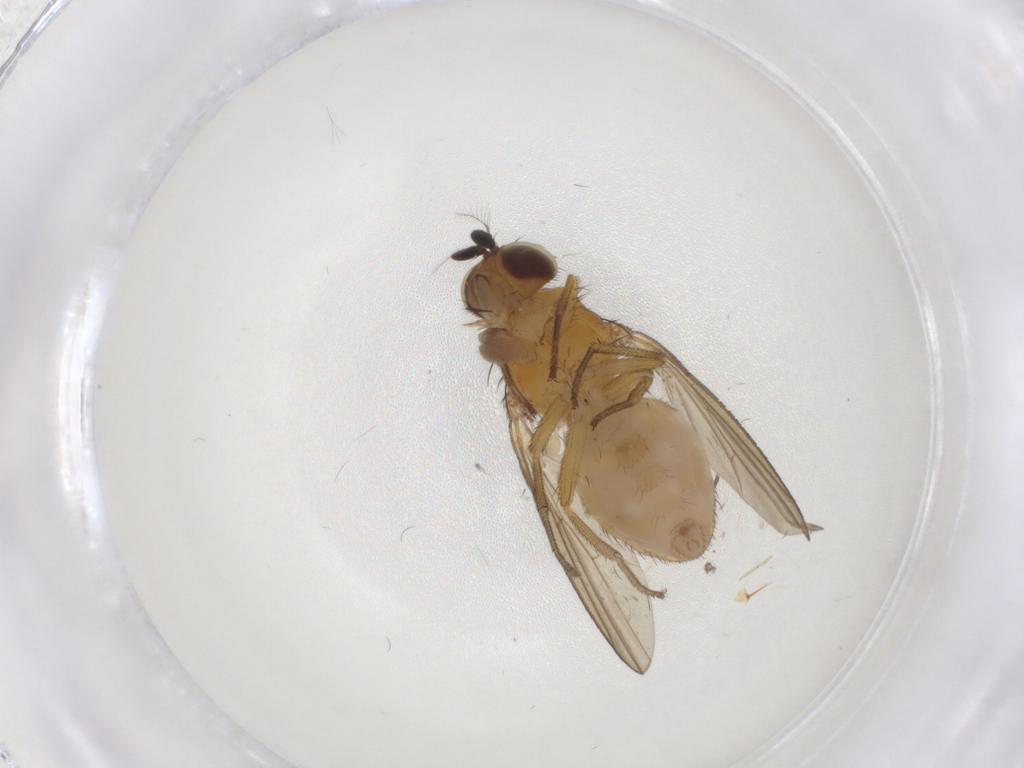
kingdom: Animalia
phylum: Arthropoda
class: Insecta
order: Diptera
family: Sciaridae
